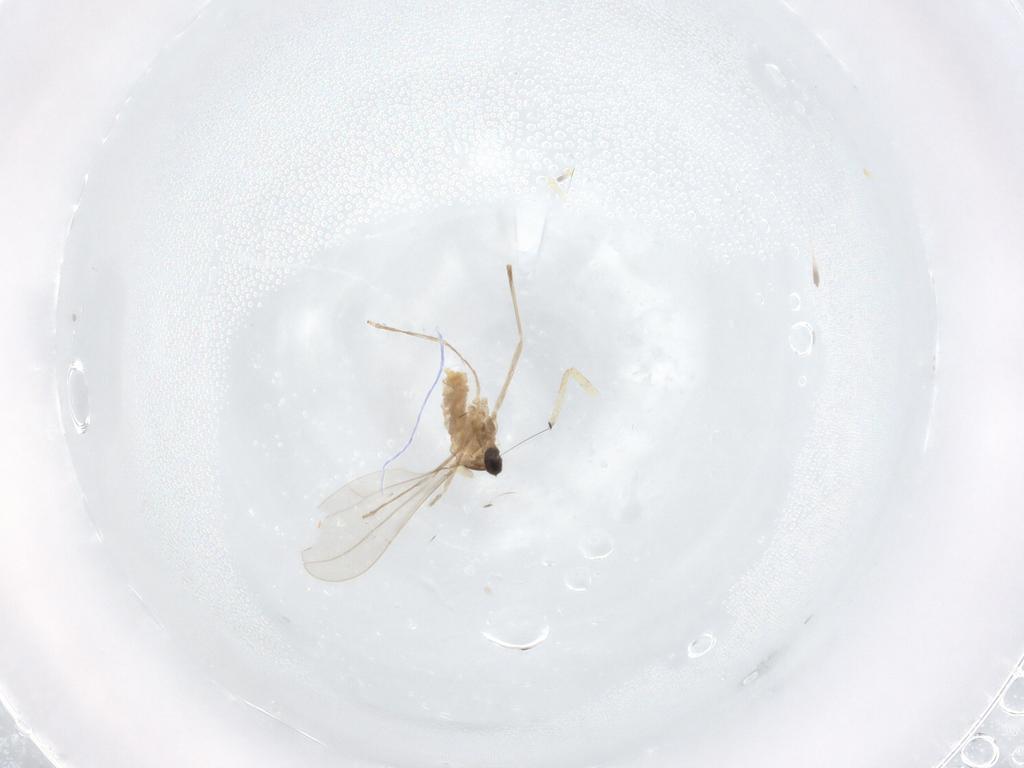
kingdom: Animalia
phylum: Arthropoda
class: Insecta
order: Diptera
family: Cecidomyiidae
